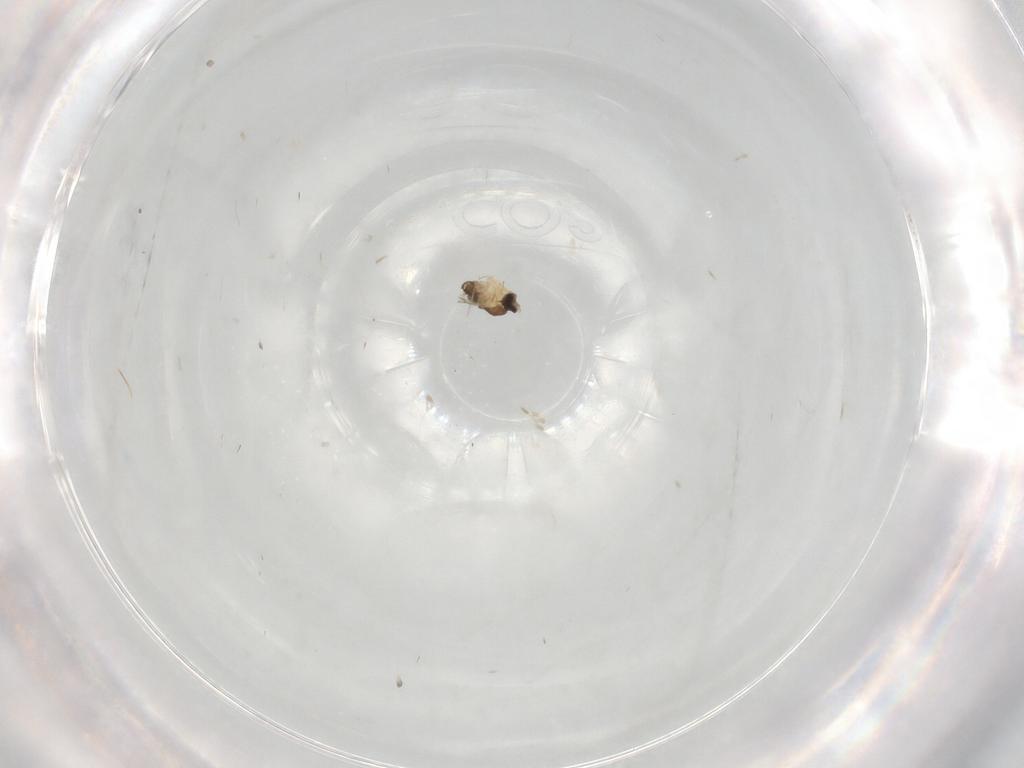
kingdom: Animalia
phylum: Arthropoda
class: Insecta
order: Diptera
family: Muscidae
